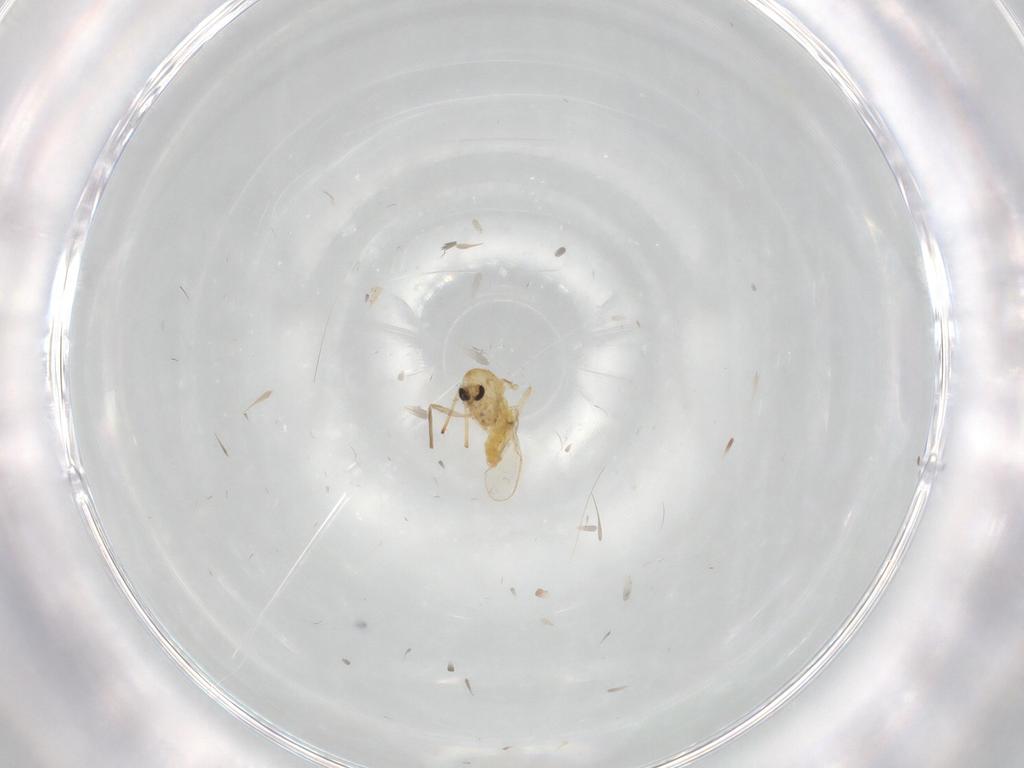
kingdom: Animalia
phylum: Arthropoda
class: Insecta
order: Diptera
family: Chironomidae
